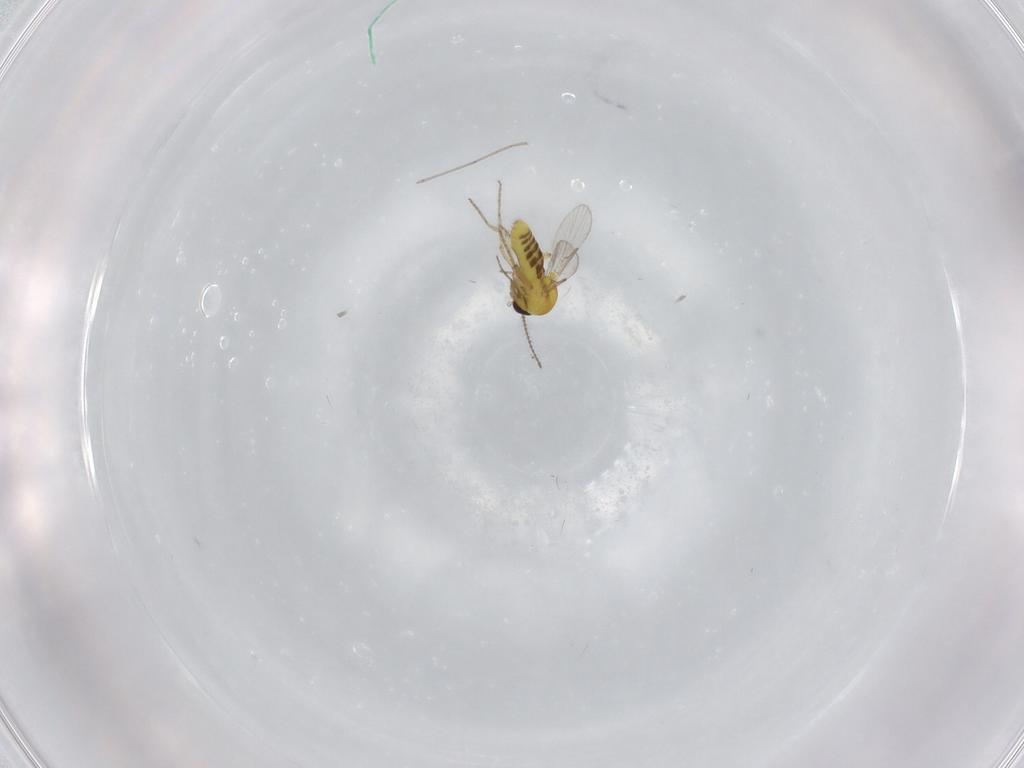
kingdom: Animalia
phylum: Arthropoda
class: Insecta
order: Diptera
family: Ceratopogonidae
